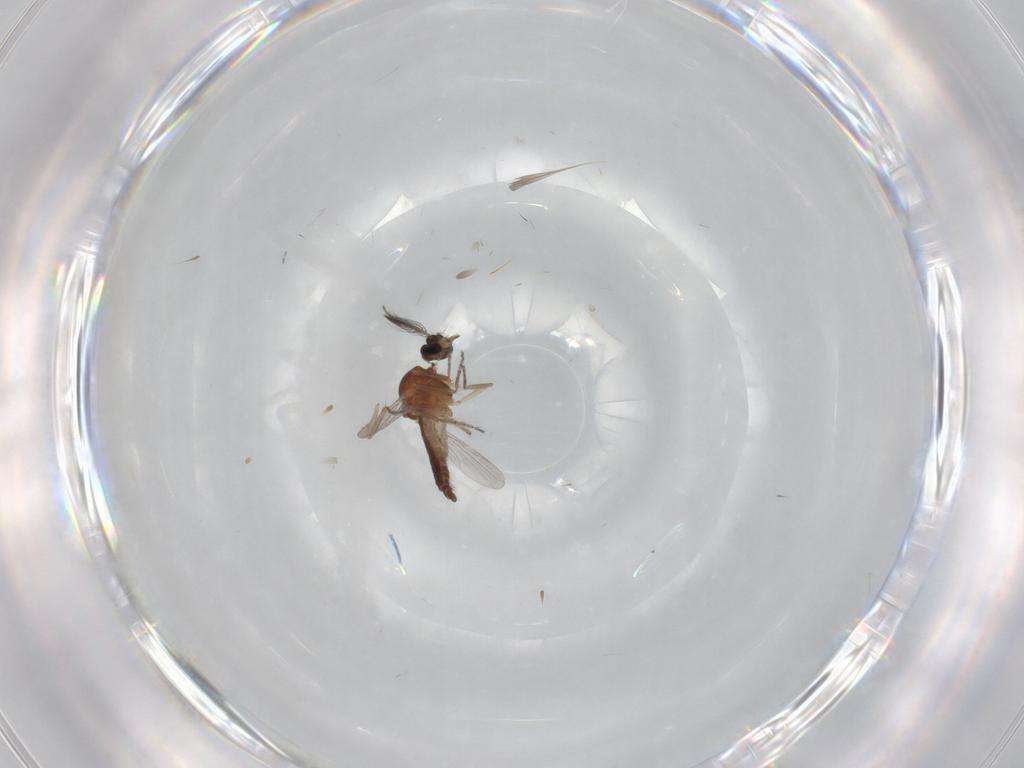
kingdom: Animalia
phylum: Arthropoda
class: Insecta
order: Diptera
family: Ceratopogonidae
